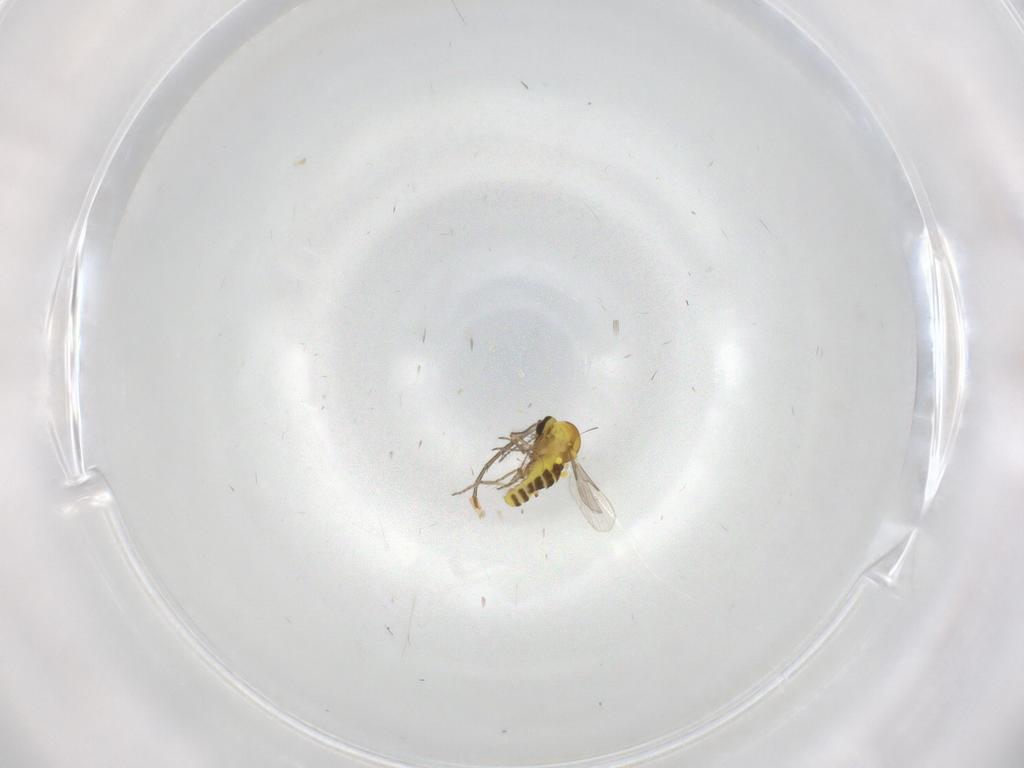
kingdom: Animalia
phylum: Arthropoda
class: Insecta
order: Diptera
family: Phoridae
